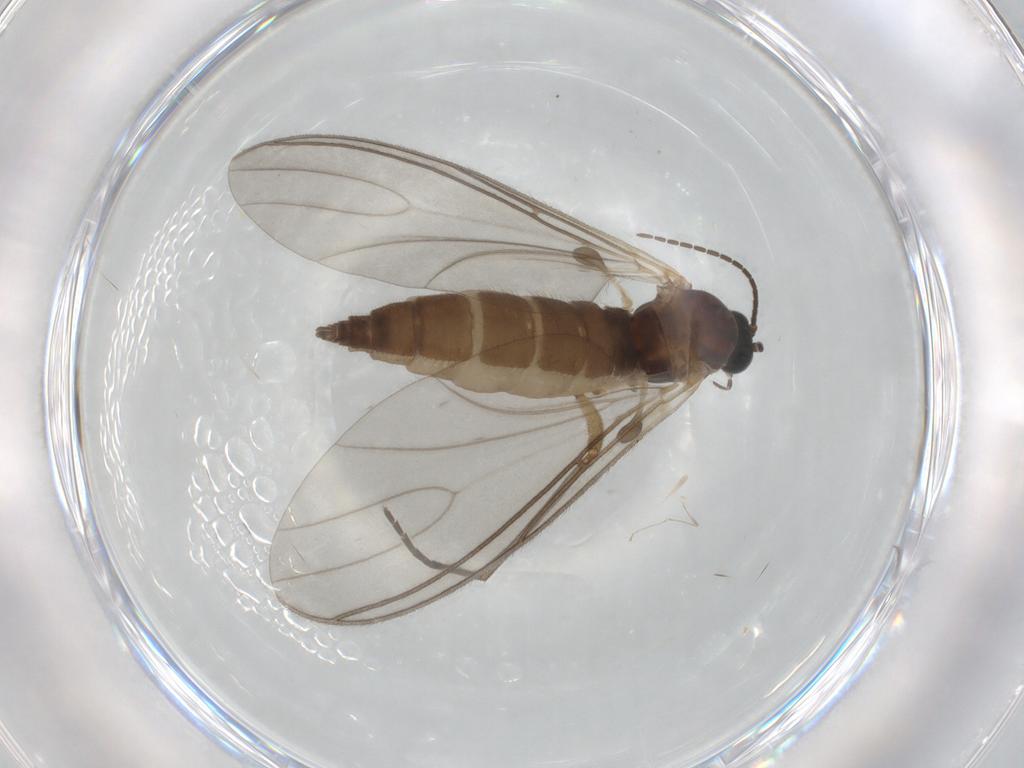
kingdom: Animalia
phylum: Arthropoda
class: Insecta
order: Diptera
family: Sciaridae
